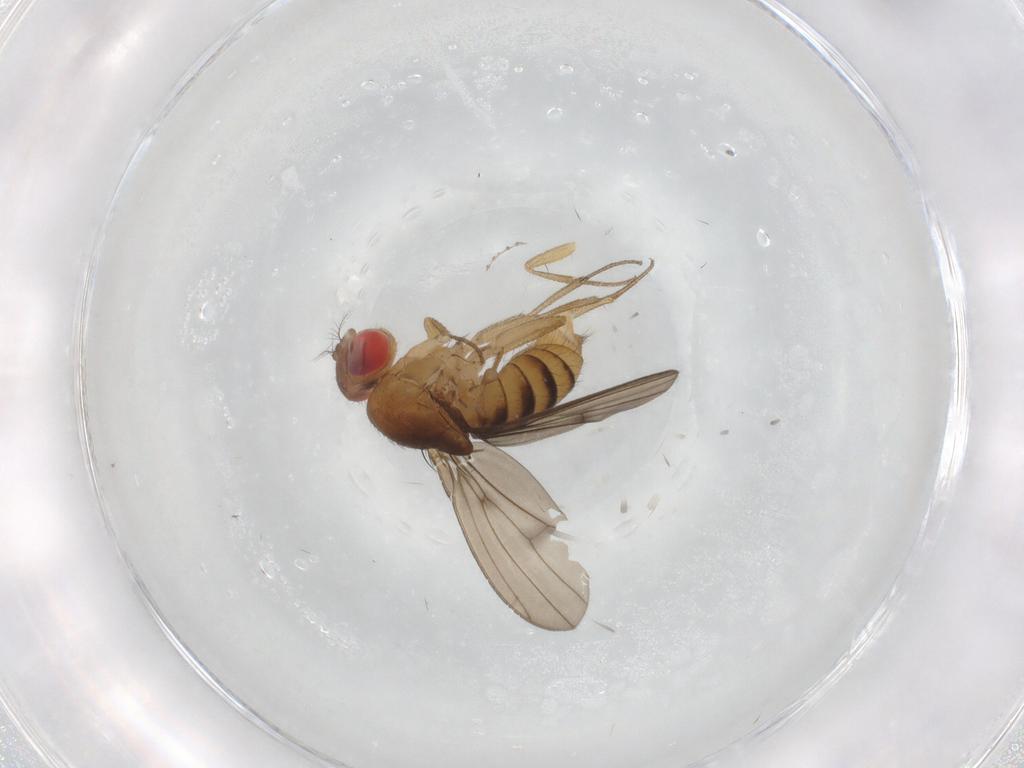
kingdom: Animalia
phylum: Arthropoda
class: Insecta
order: Diptera
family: Drosophilidae
